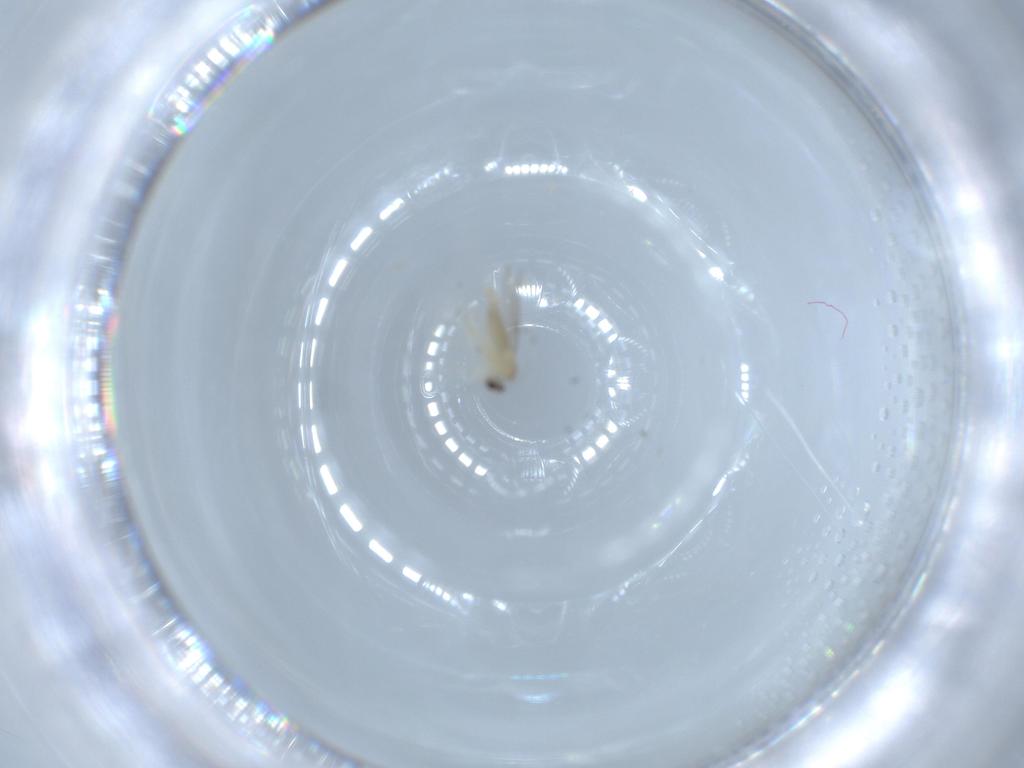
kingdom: Animalia
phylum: Arthropoda
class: Insecta
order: Diptera
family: Cecidomyiidae
